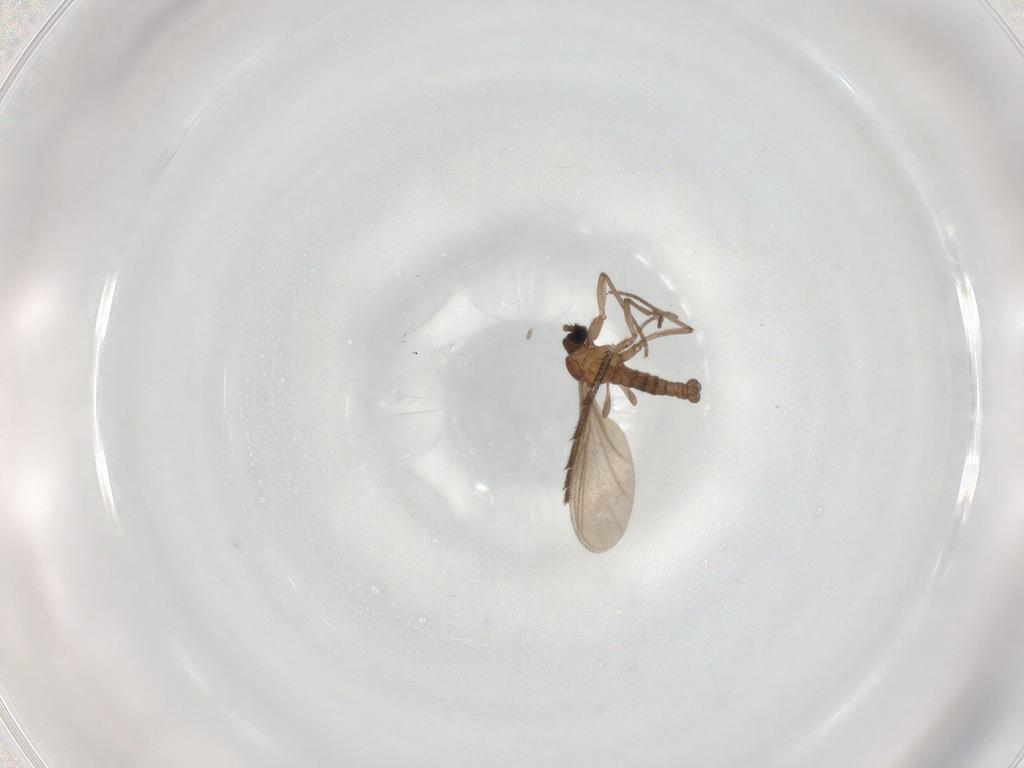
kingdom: Animalia
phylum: Arthropoda
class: Insecta
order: Diptera
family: Sciaridae
